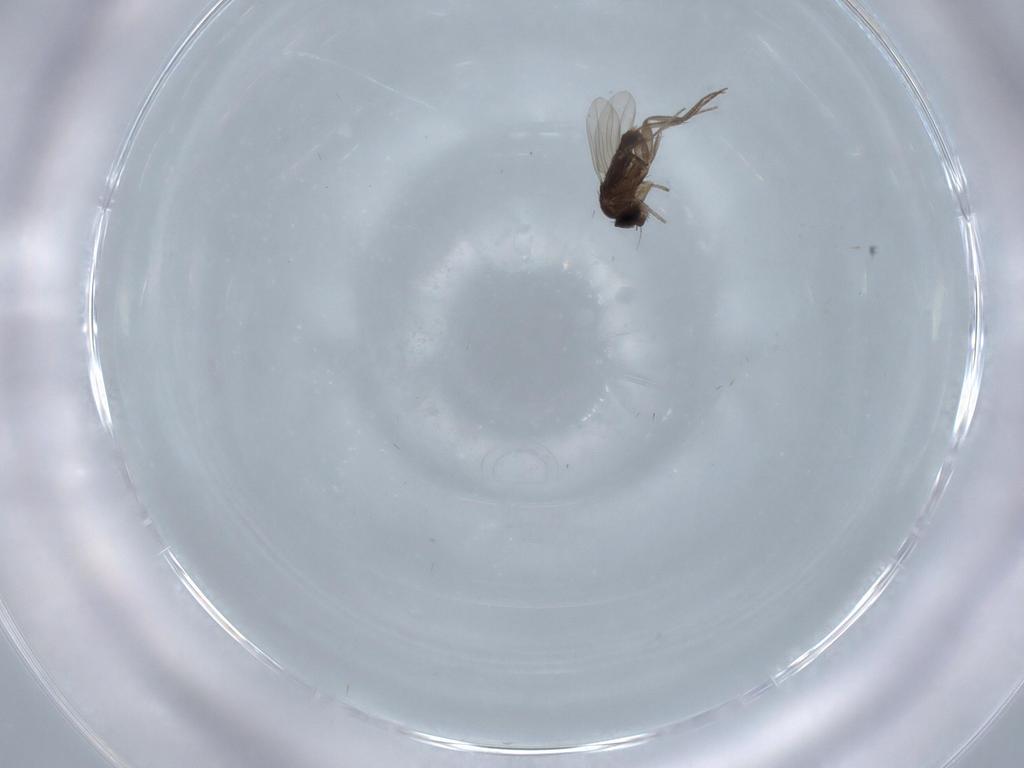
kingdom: Animalia
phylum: Arthropoda
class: Insecta
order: Diptera
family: Phoridae
